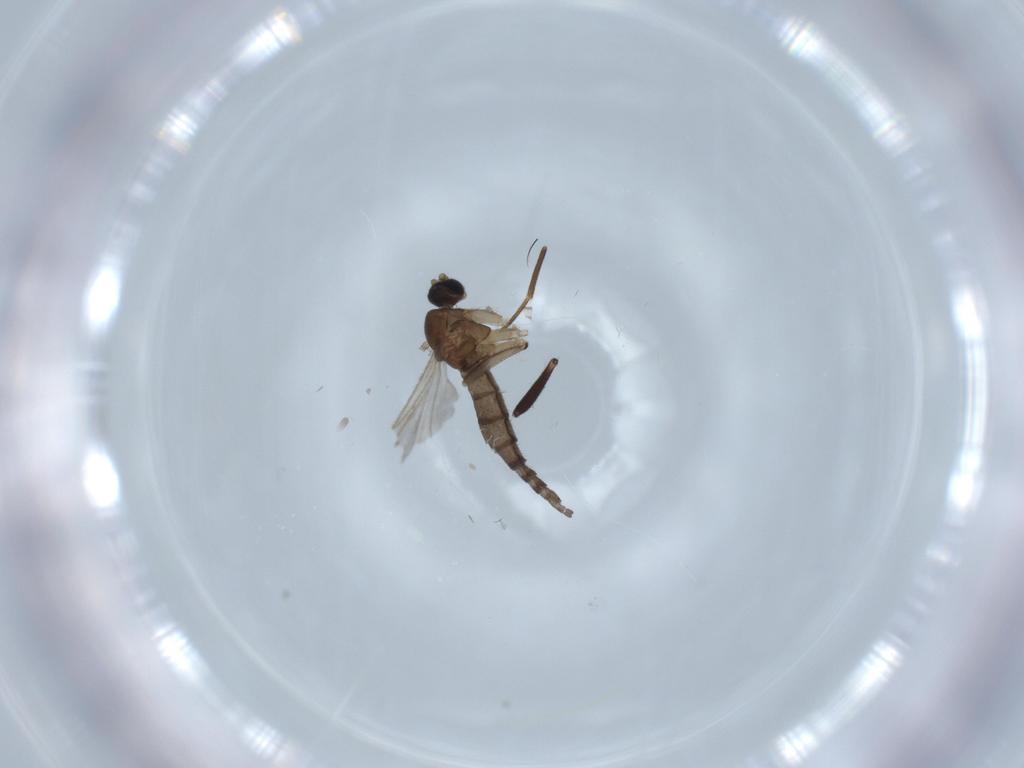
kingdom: Animalia
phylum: Arthropoda
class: Insecta
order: Diptera
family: Sciaridae
